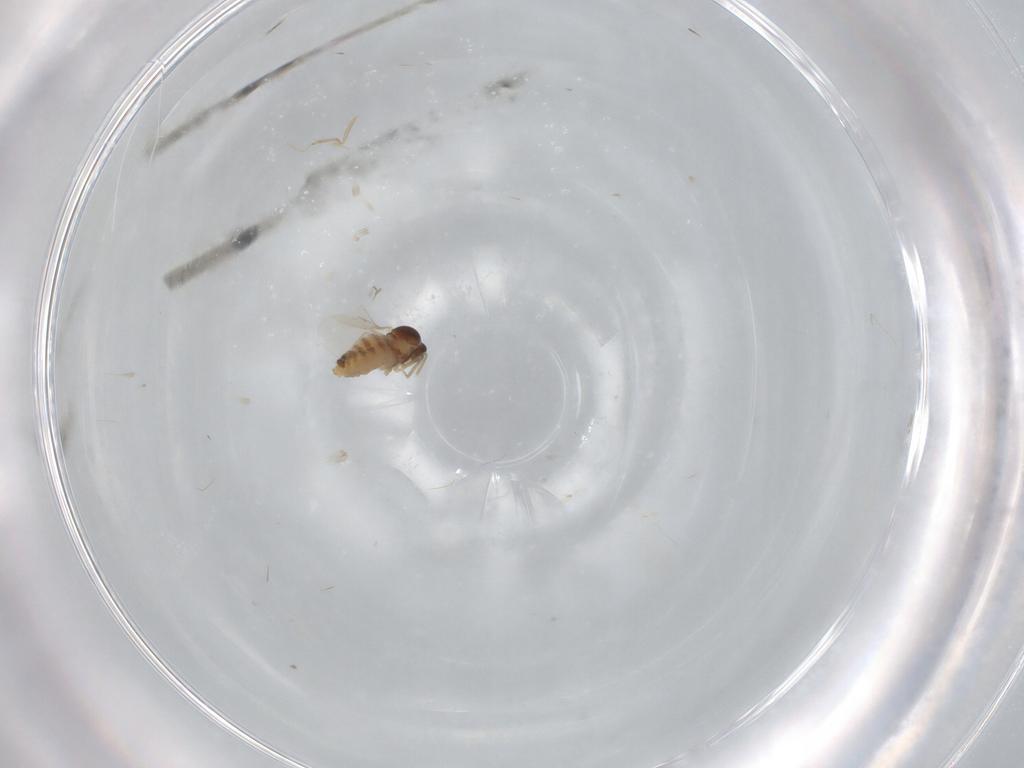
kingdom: Animalia
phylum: Arthropoda
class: Insecta
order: Diptera
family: Cecidomyiidae
